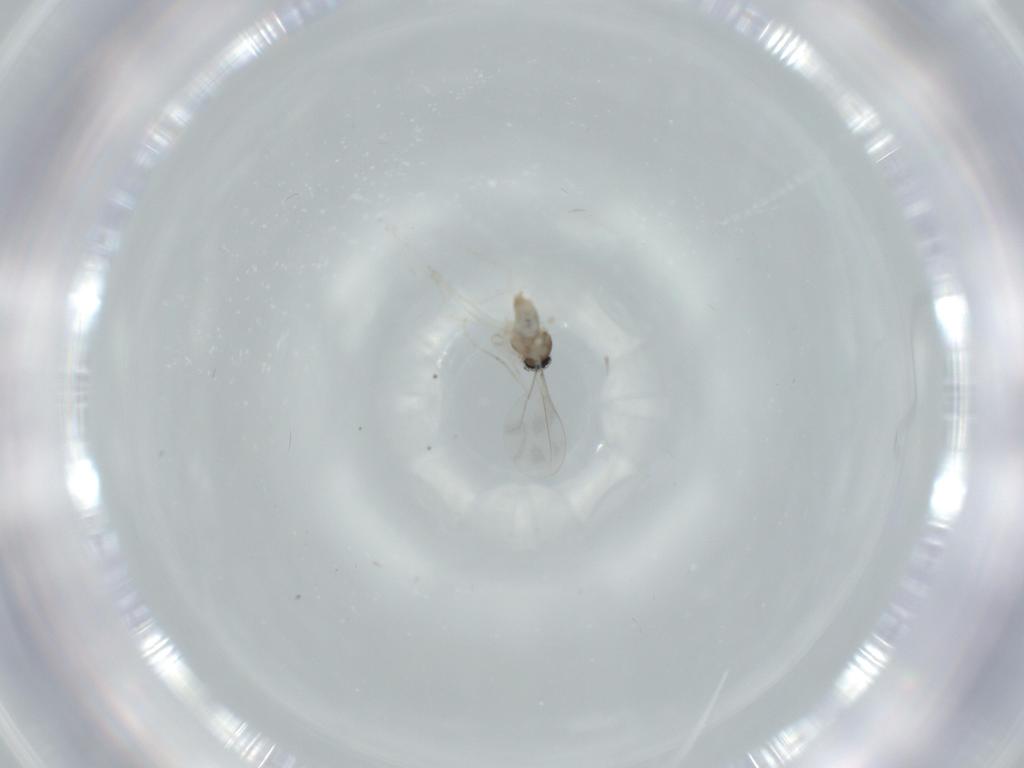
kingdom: Animalia
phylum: Arthropoda
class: Insecta
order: Diptera
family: Cecidomyiidae
